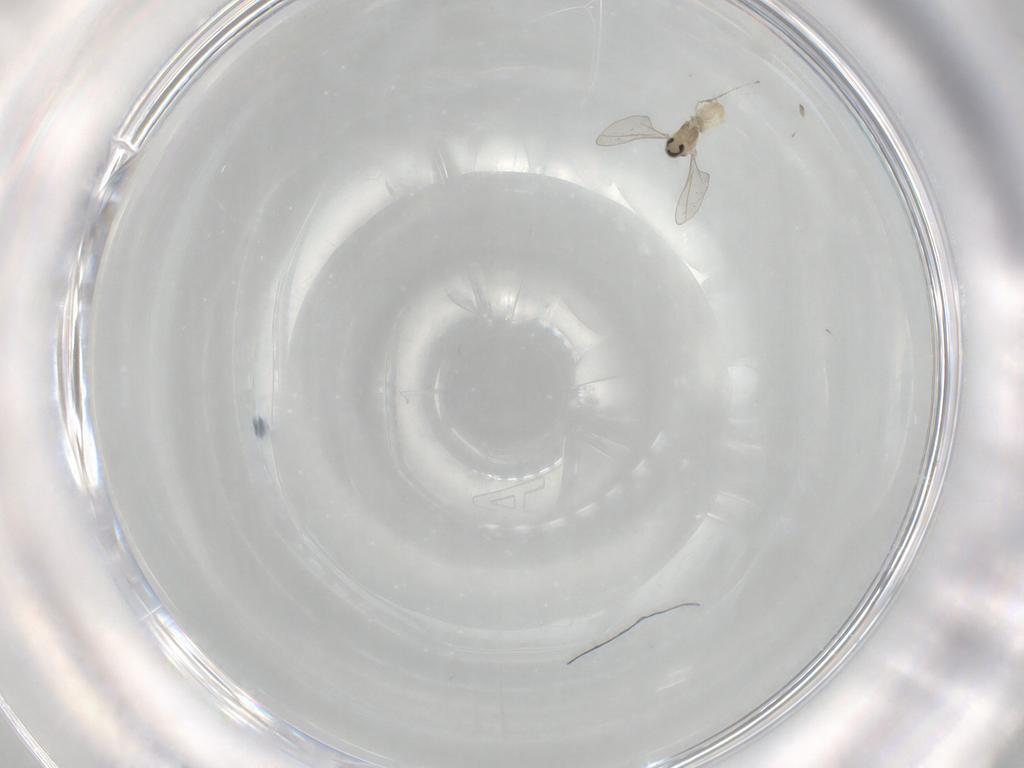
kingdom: Animalia
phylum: Arthropoda
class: Insecta
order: Diptera
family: Cecidomyiidae
